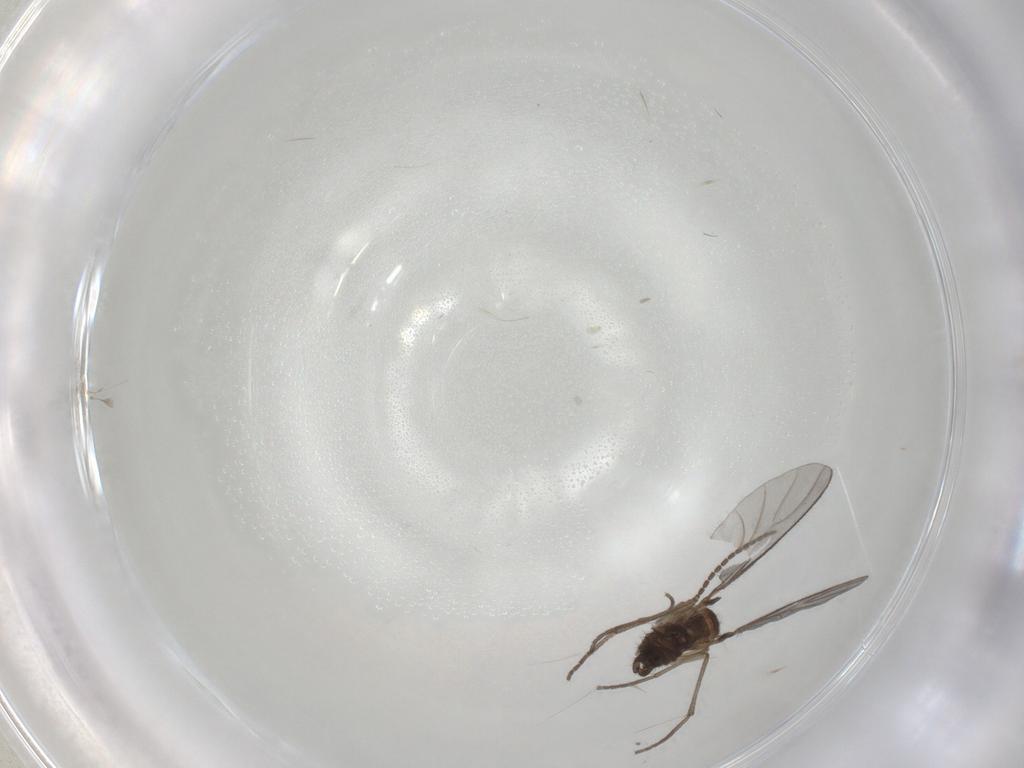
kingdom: Animalia
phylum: Arthropoda
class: Insecta
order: Diptera
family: Sciaridae
